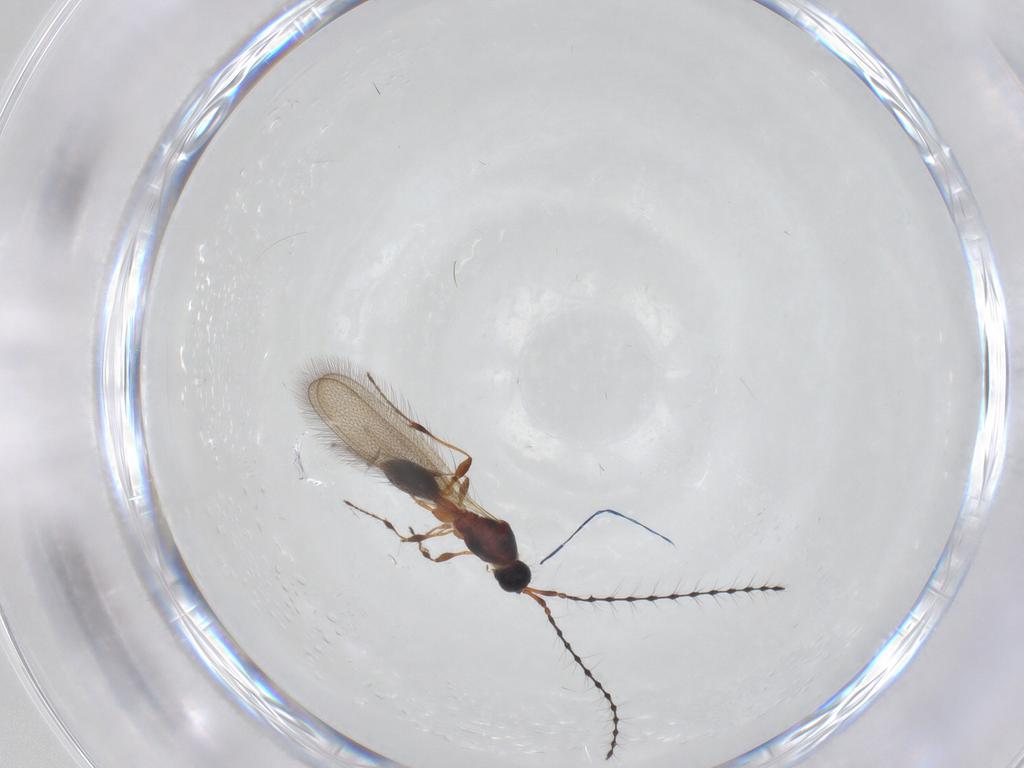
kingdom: Animalia
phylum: Arthropoda
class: Insecta
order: Hymenoptera
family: Diapriidae
